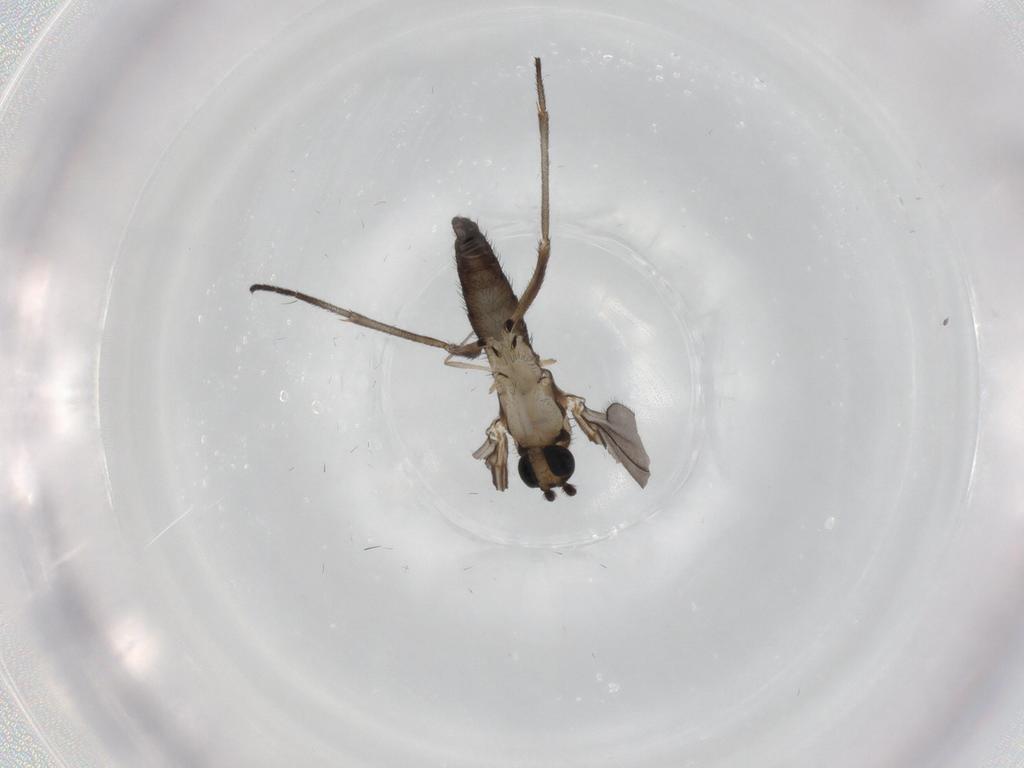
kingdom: Animalia
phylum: Arthropoda
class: Insecta
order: Diptera
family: Sciaridae
